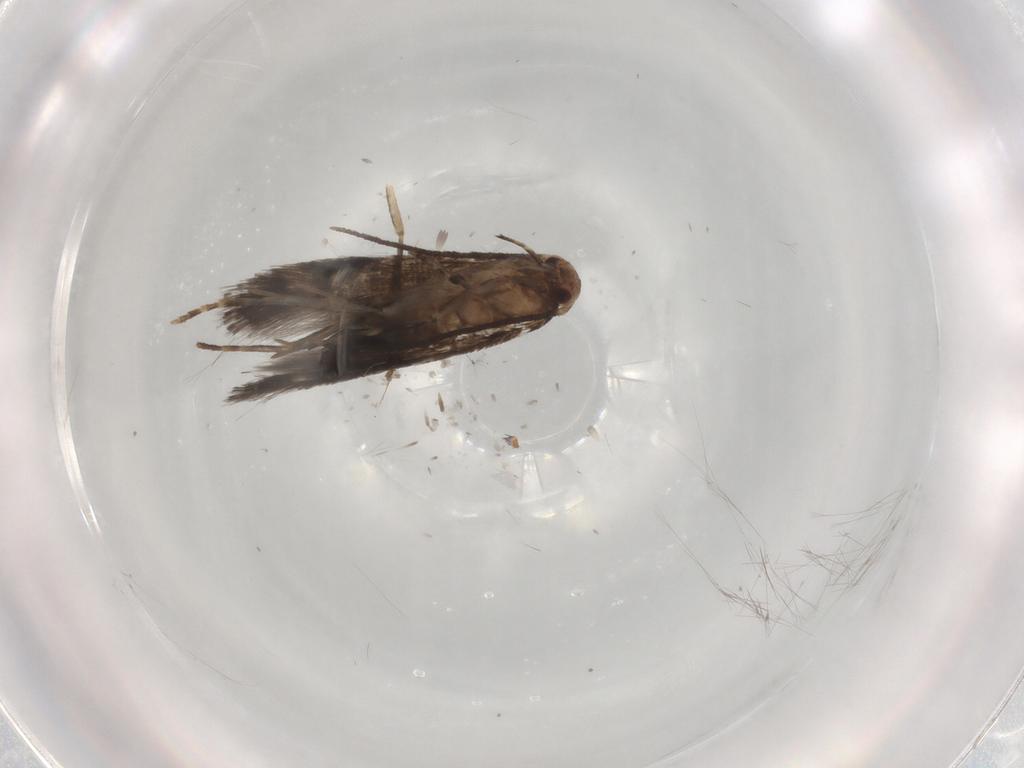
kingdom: Animalia
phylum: Arthropoda
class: Insecta
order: Lepidoptera
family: Elachistidae
